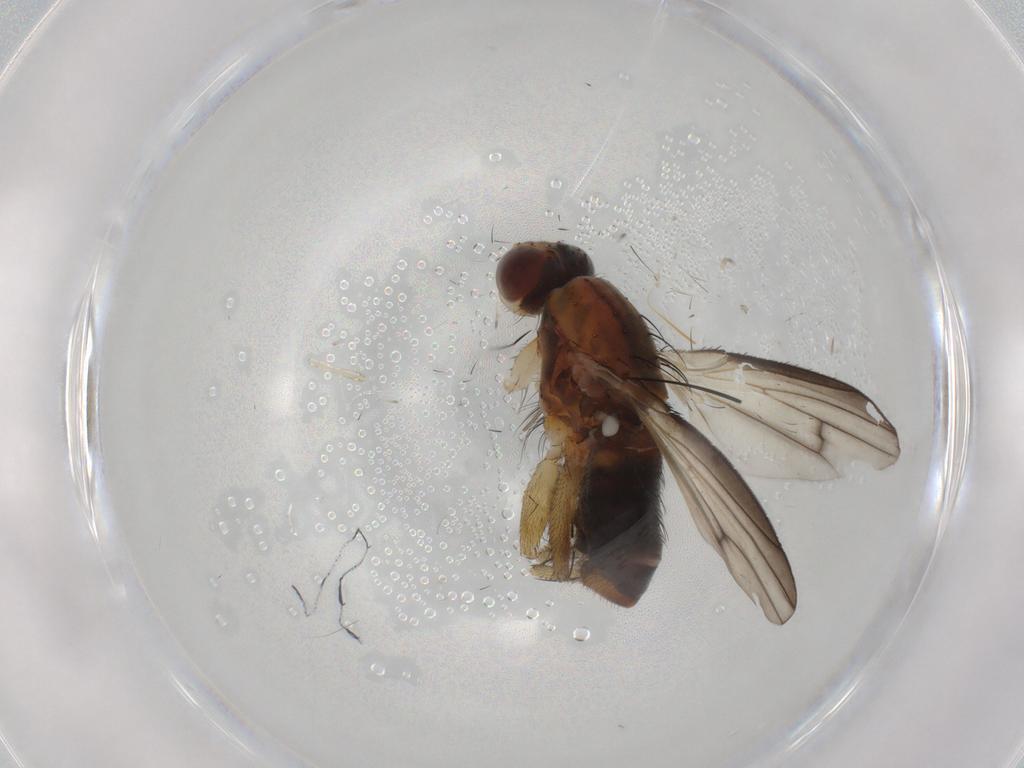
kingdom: Animalia
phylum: Arthropoda
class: Insecta
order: Diptera
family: Heleomyzidae
